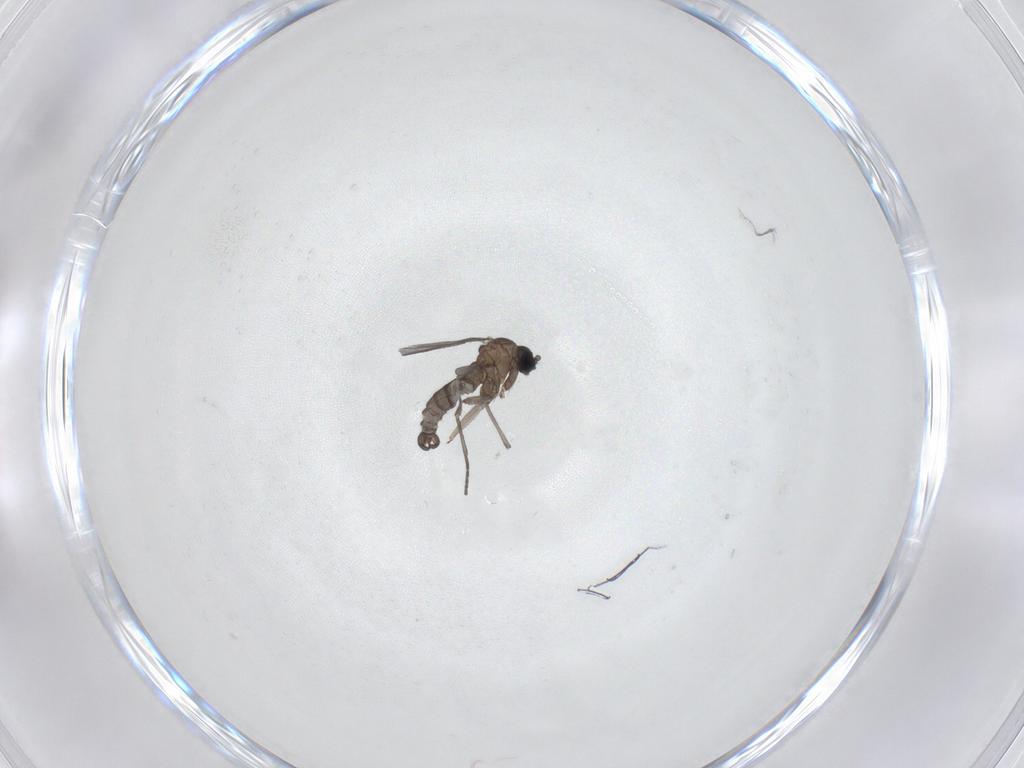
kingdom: Animalia
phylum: Arthropoda
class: Insecta
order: Diptera
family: Sciaridae
